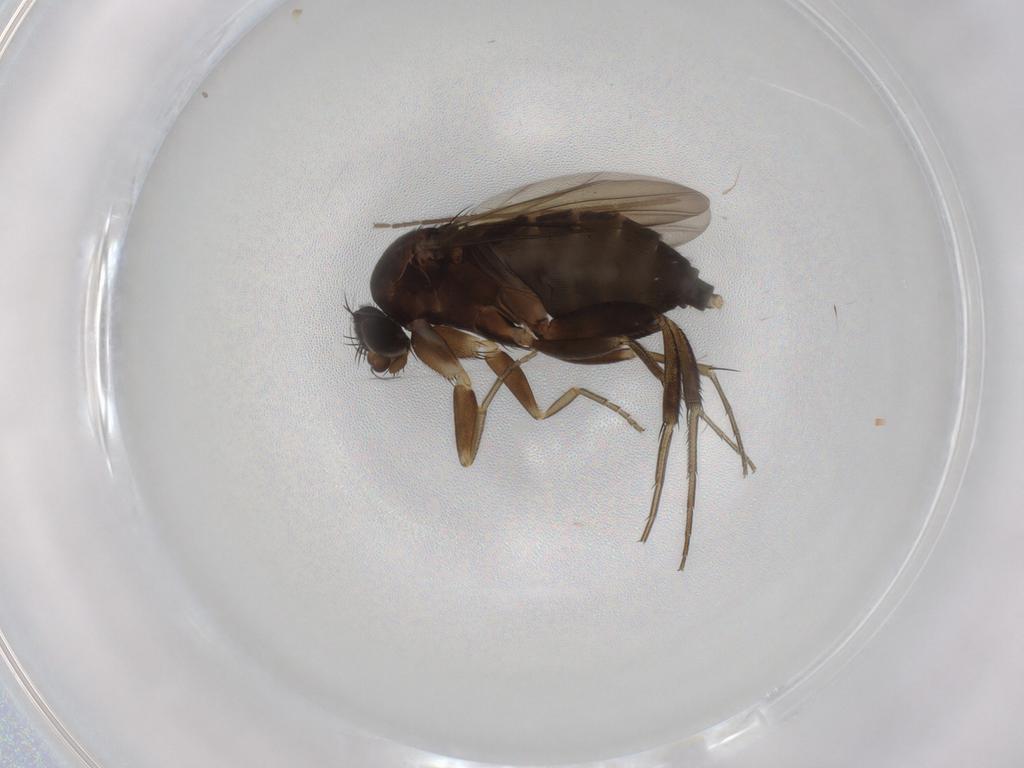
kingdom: Animalia
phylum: Arthropoda
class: Insecta
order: Diptera
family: Phoridae
